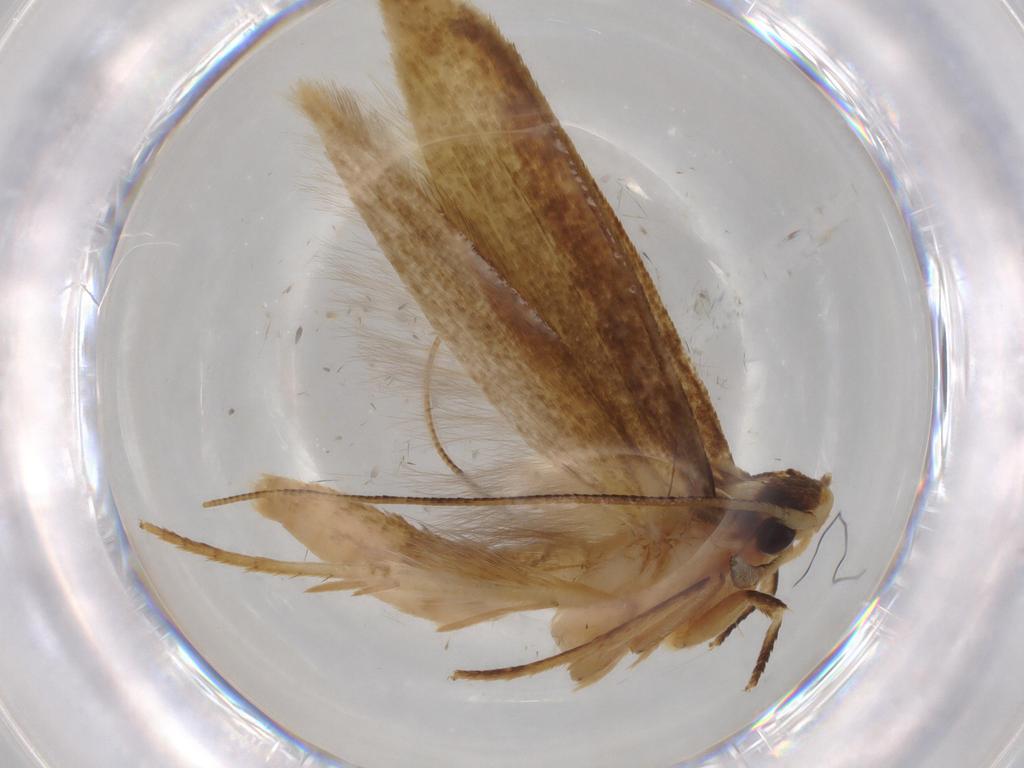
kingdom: Animalia
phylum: Arthropoda
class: Insecta
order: Lepidoptera
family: Tineidae
